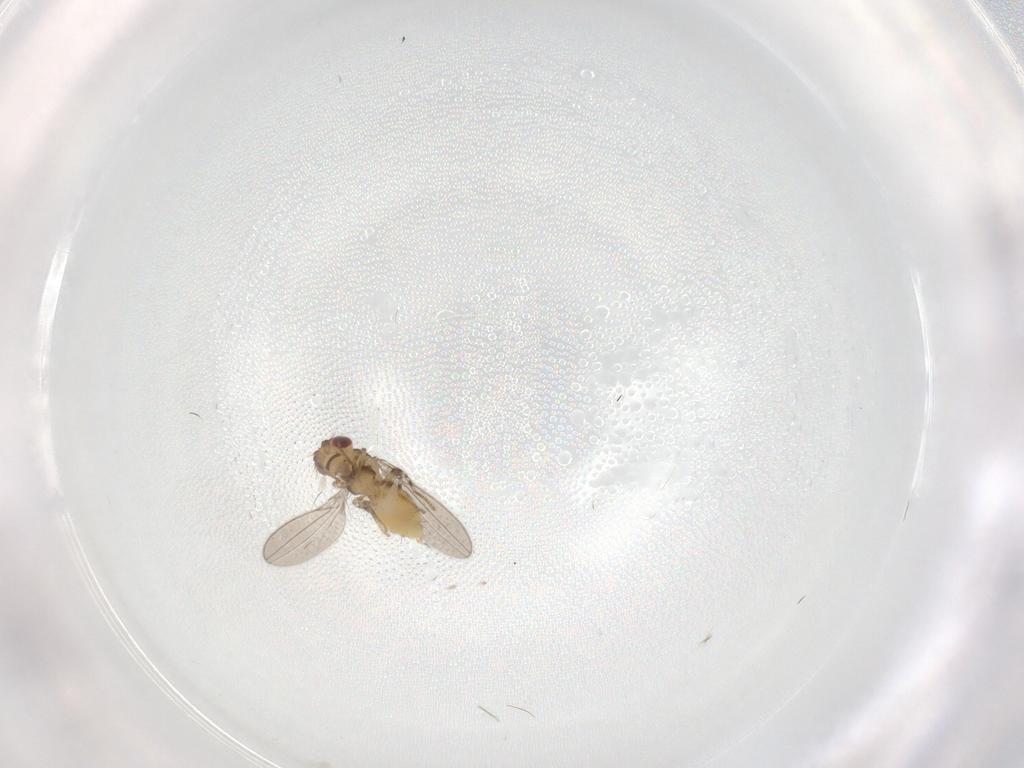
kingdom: Animalia
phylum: Arthropoda
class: Insecta
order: Diptera
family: Asteiidae
